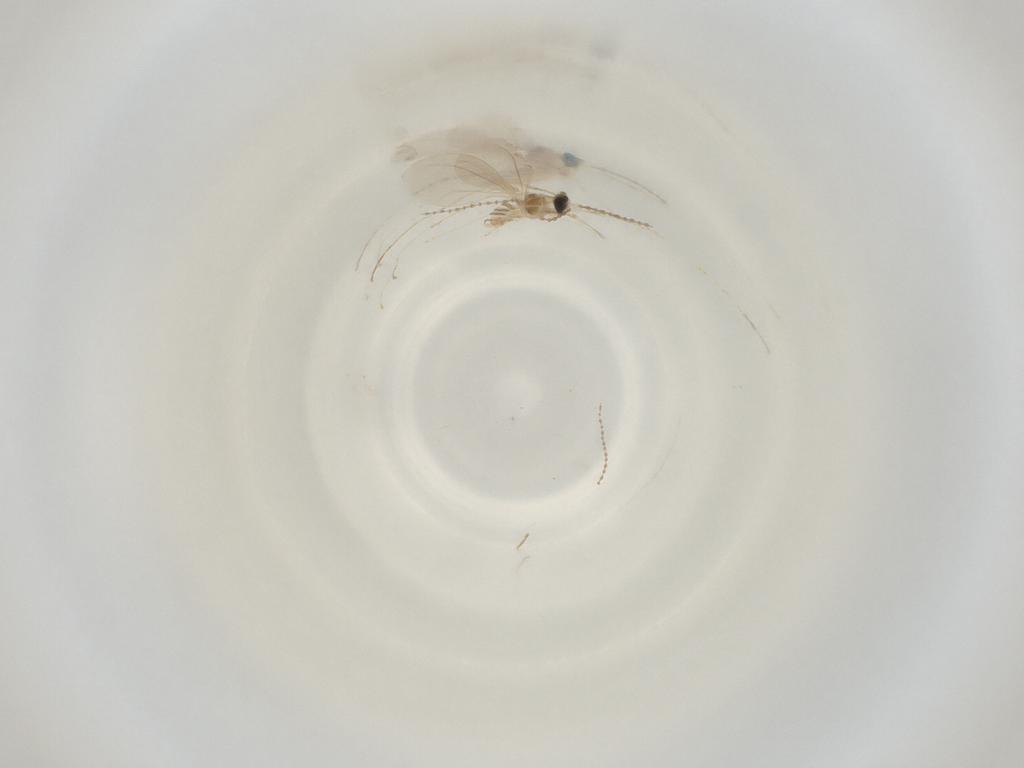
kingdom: Animalia
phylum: Arthropoda
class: Insecta
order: Diptera
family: Cecidomyiidae
